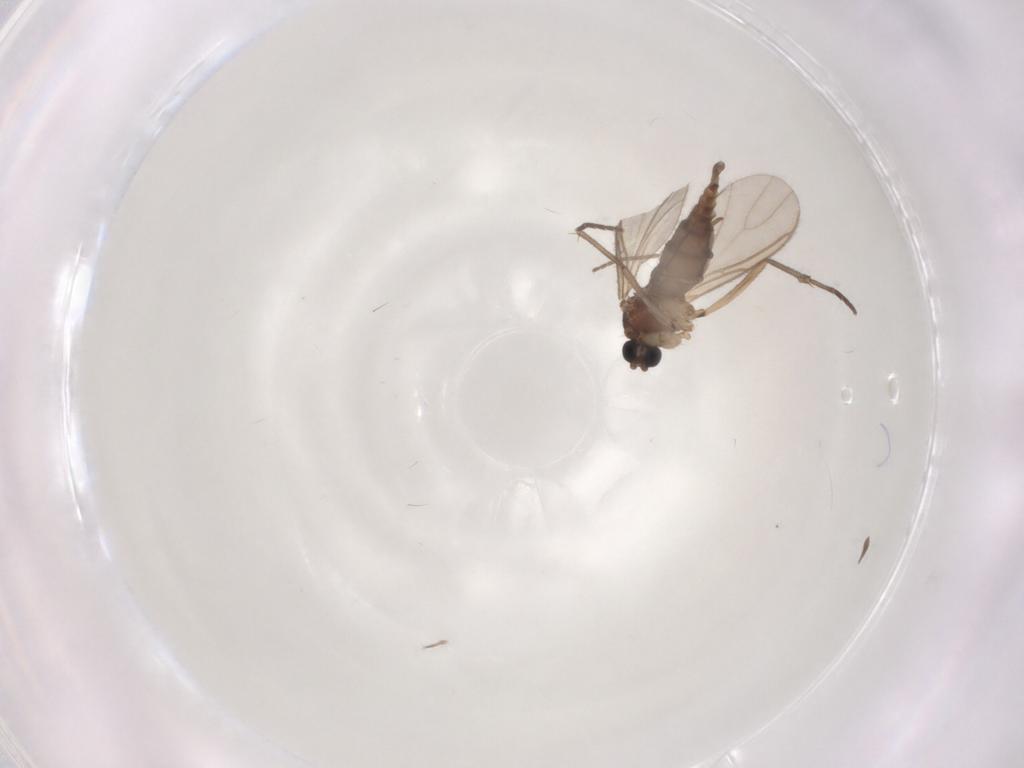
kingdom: Animalia
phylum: Arthropoda
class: Insecta
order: Diptera
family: Sciaridae
